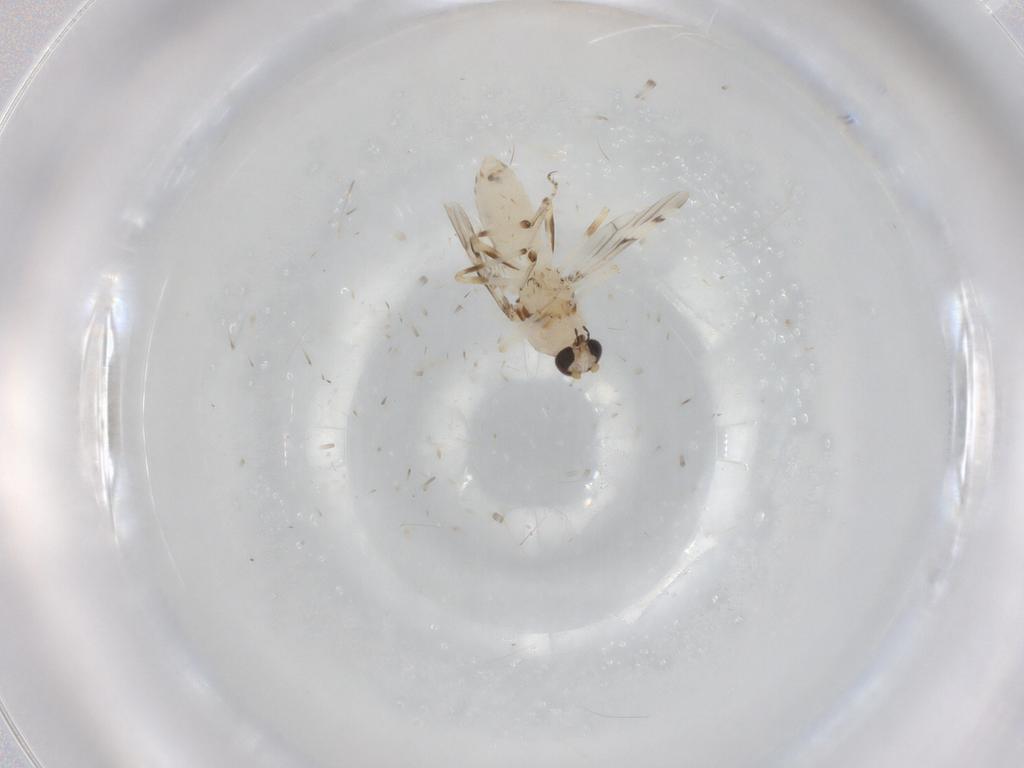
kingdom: Animalia
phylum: Arthropoda
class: Insecta
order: Diptera
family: Ceratopogonidae
